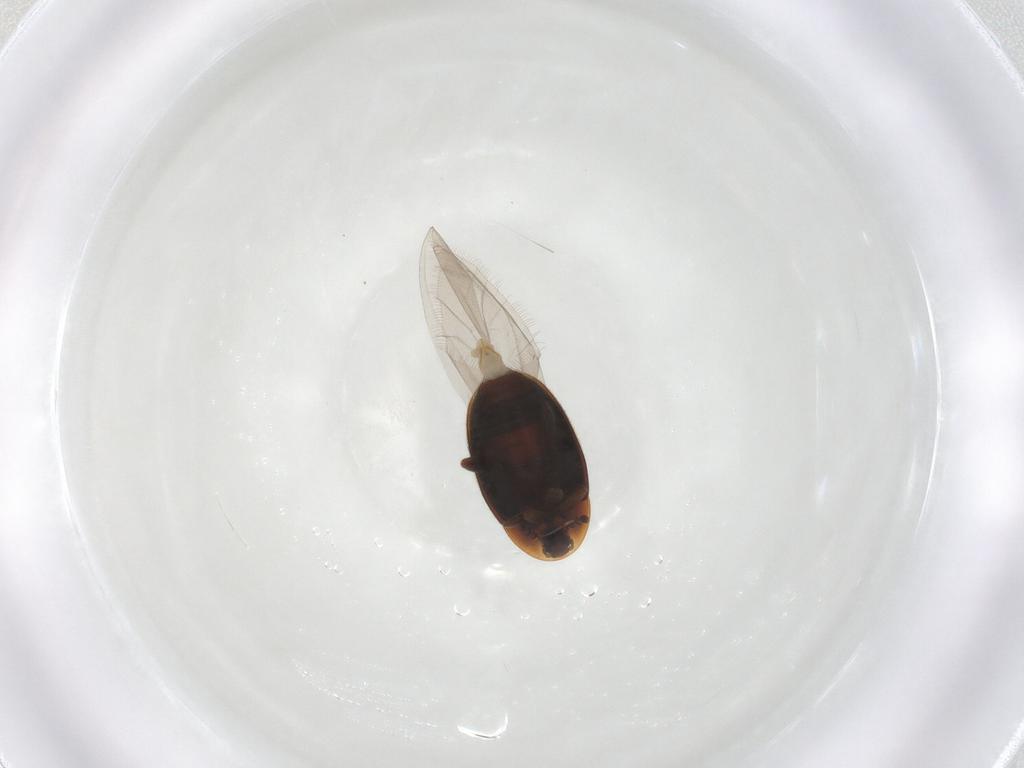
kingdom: Animalia
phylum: Arthropoda
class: Insecta
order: Coleoptera
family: Corylophidae
